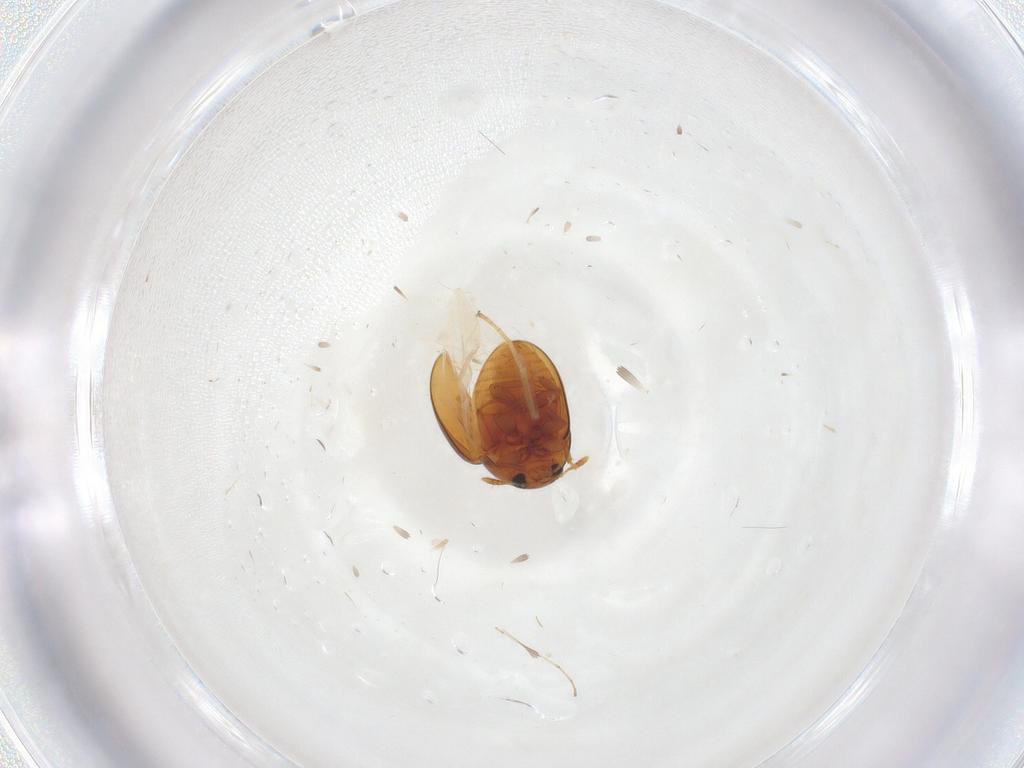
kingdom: Animalia
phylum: Arthropoda
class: Insecta
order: Coleoptera
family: Phalacridae
